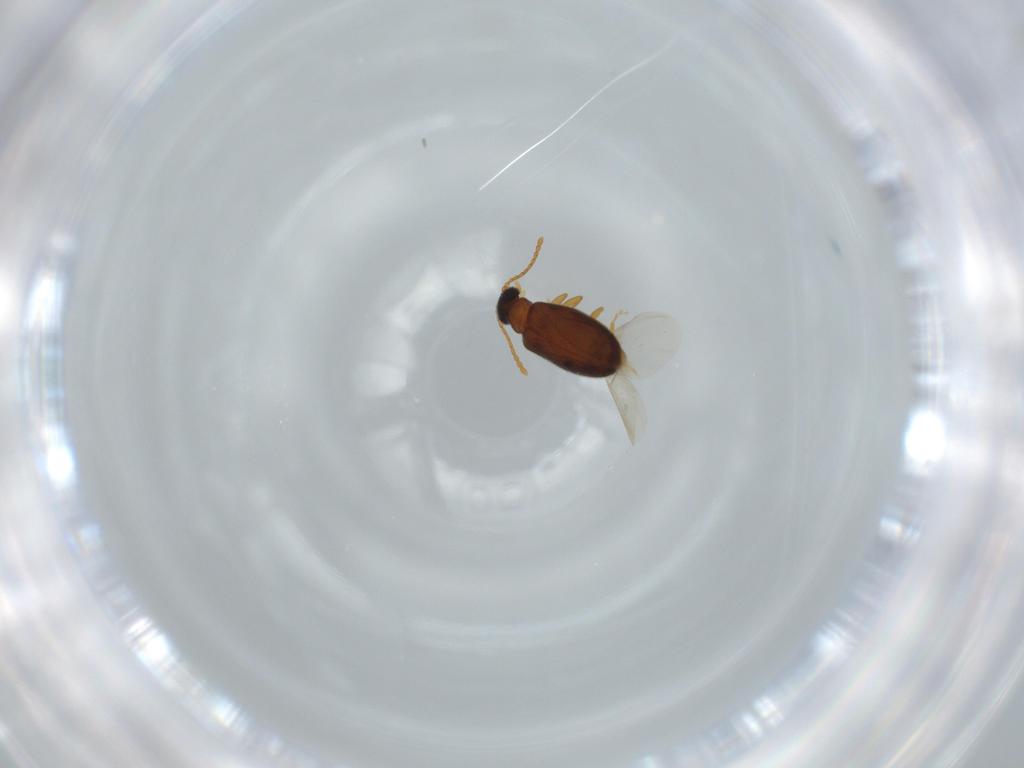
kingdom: Animalia
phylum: Arthropoda
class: Insecta
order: Coleoptera
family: Aderidae
